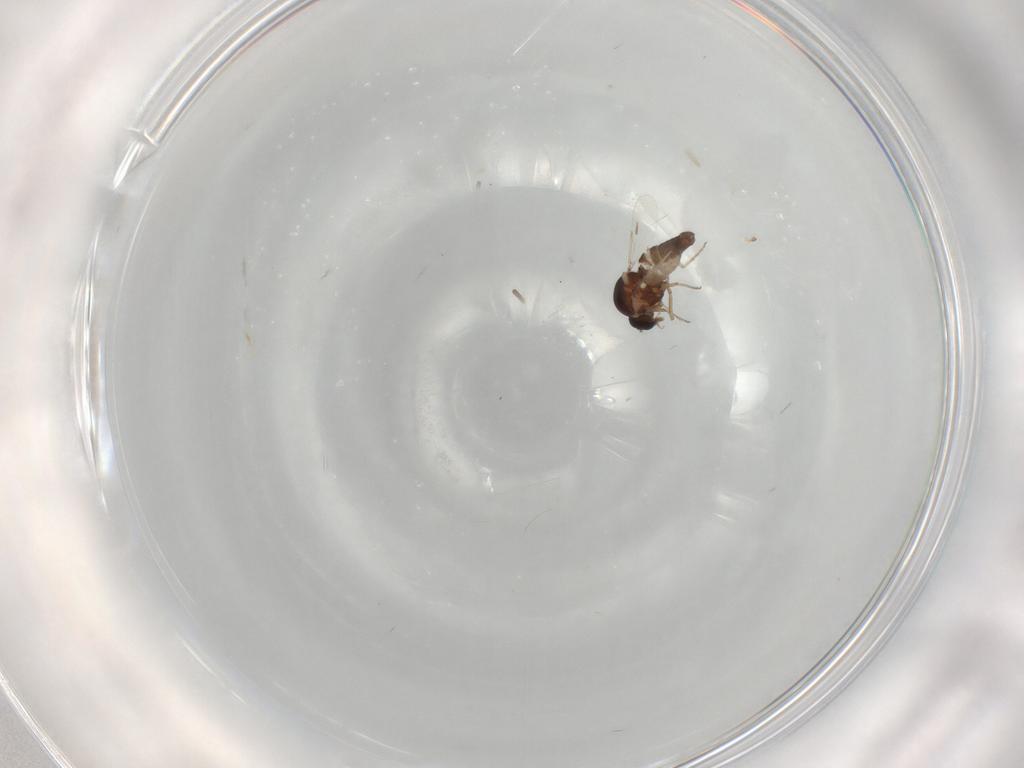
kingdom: Animalia
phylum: Arthropoda
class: Insecta
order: Diptera
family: Ceratopogonidae
